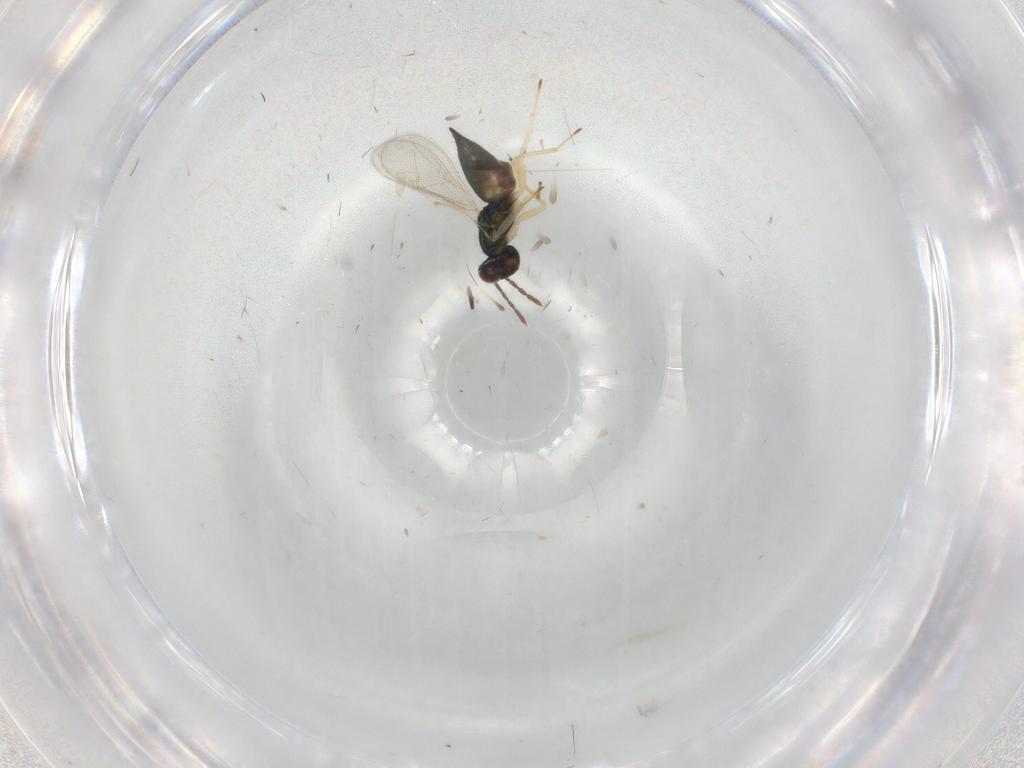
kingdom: Animalia
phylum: Arthropoda
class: Insecta
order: Hymenoptera
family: Eulophidae
